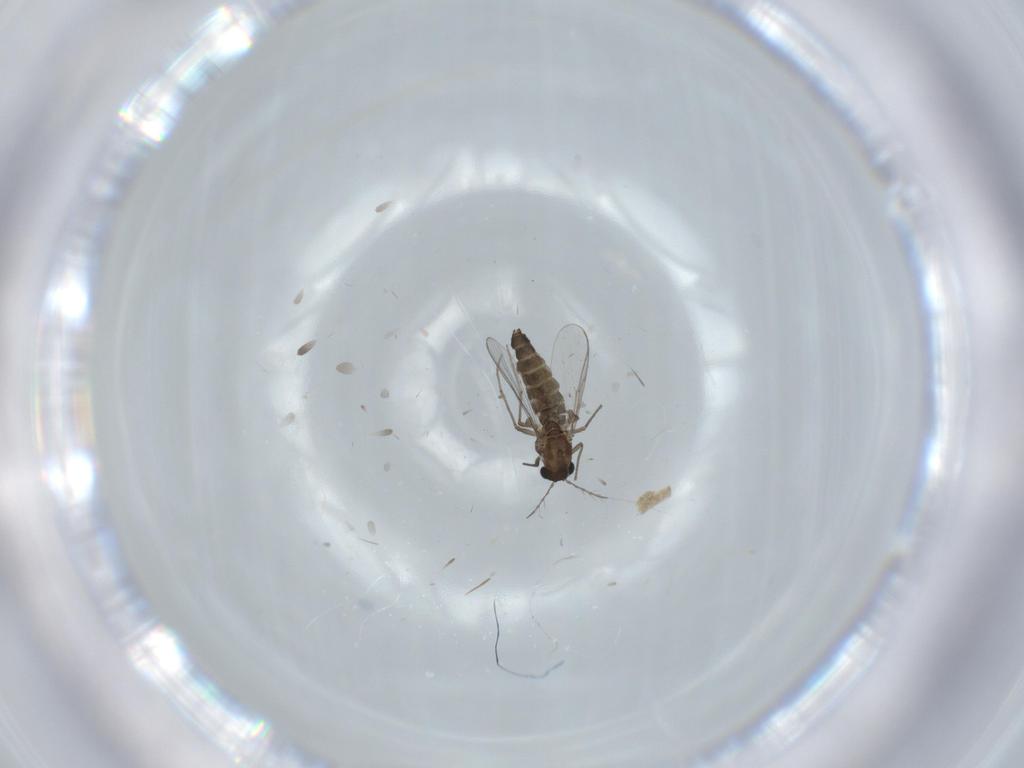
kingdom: Animalia
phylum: Arthropoda
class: Insecta
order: Diptera
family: Chironomidae
